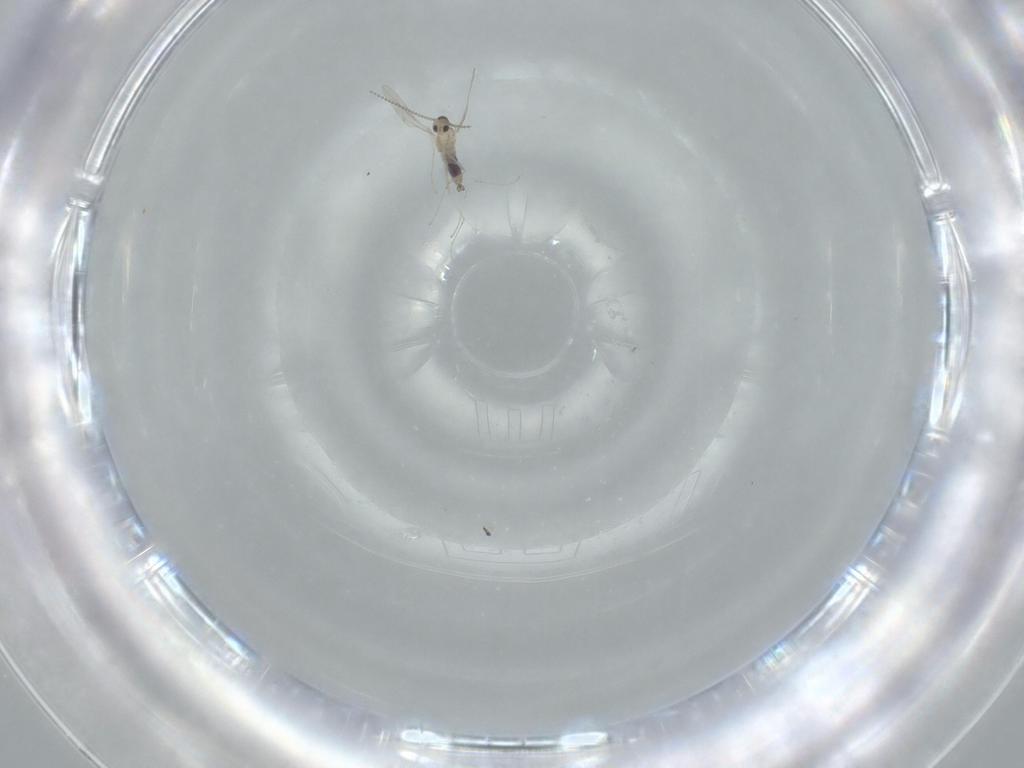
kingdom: Animalia
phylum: Arthropoda
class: Insecta
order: Diptera
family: Cecidomyiidae
